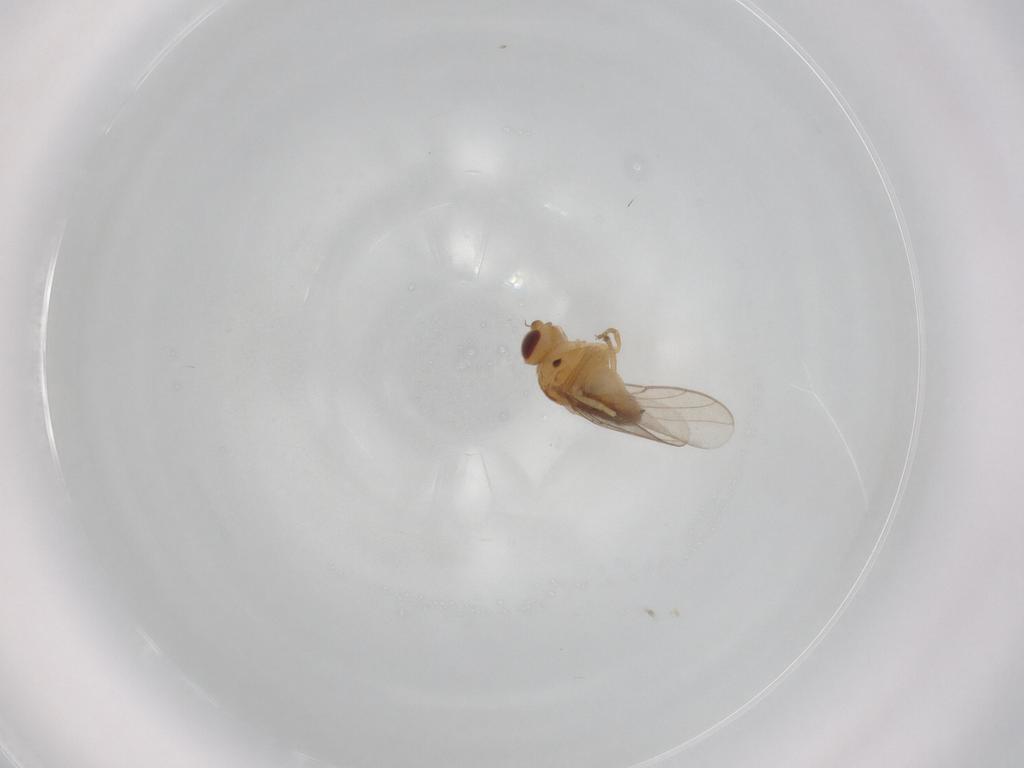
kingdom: Animalia
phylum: Arthropoda
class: Insecta
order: Diptera
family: Chloropidae
